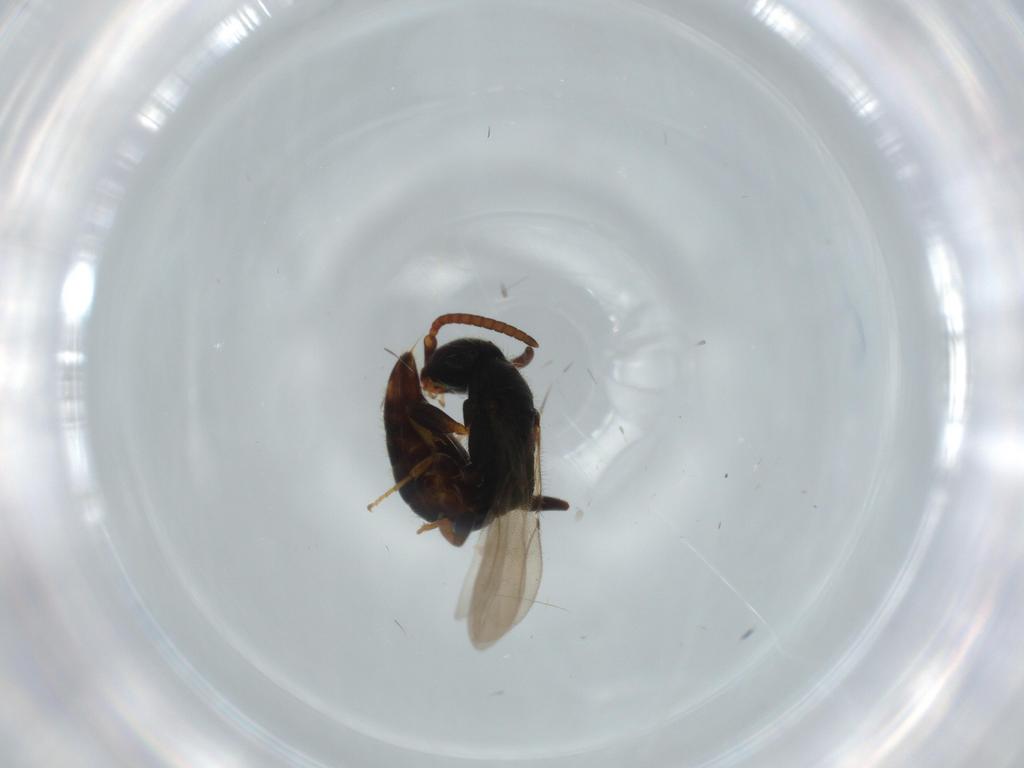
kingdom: Animalia
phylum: Arthropoda
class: Insecta
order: Hymenoptera
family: Bethylidae
